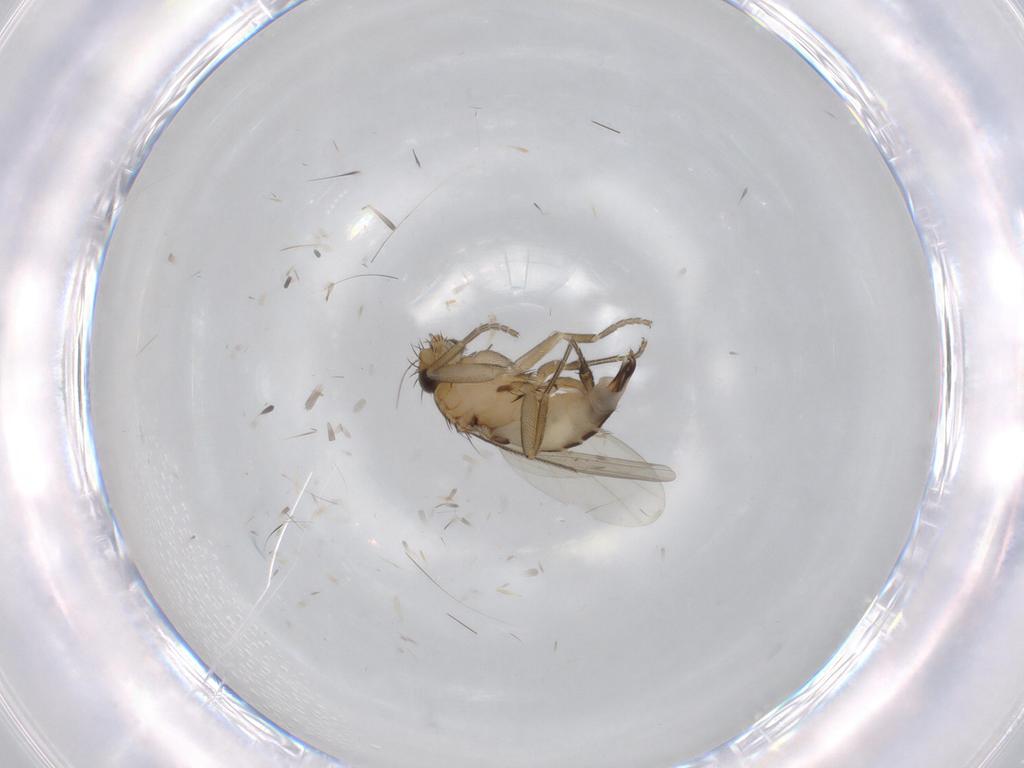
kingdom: Animalia
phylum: Arthropoda
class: Insecta
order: Diptera
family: Phoridae
